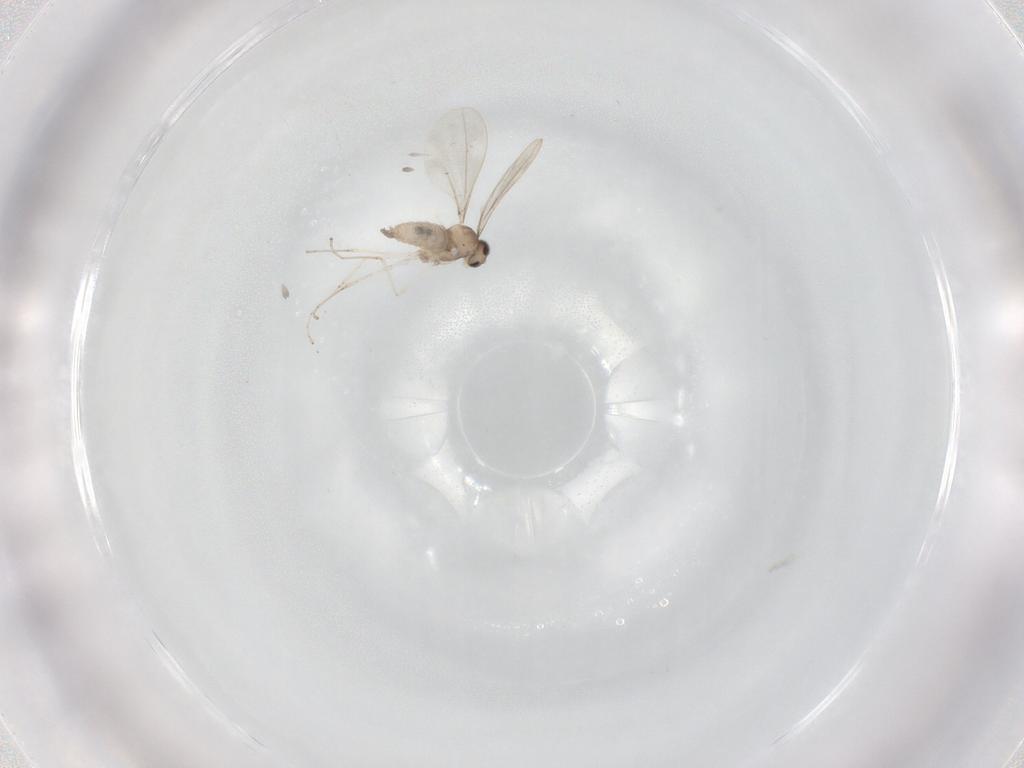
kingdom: Animalia
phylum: Arthropoda
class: Insecta
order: Diptera
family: Cecidomyiidae
